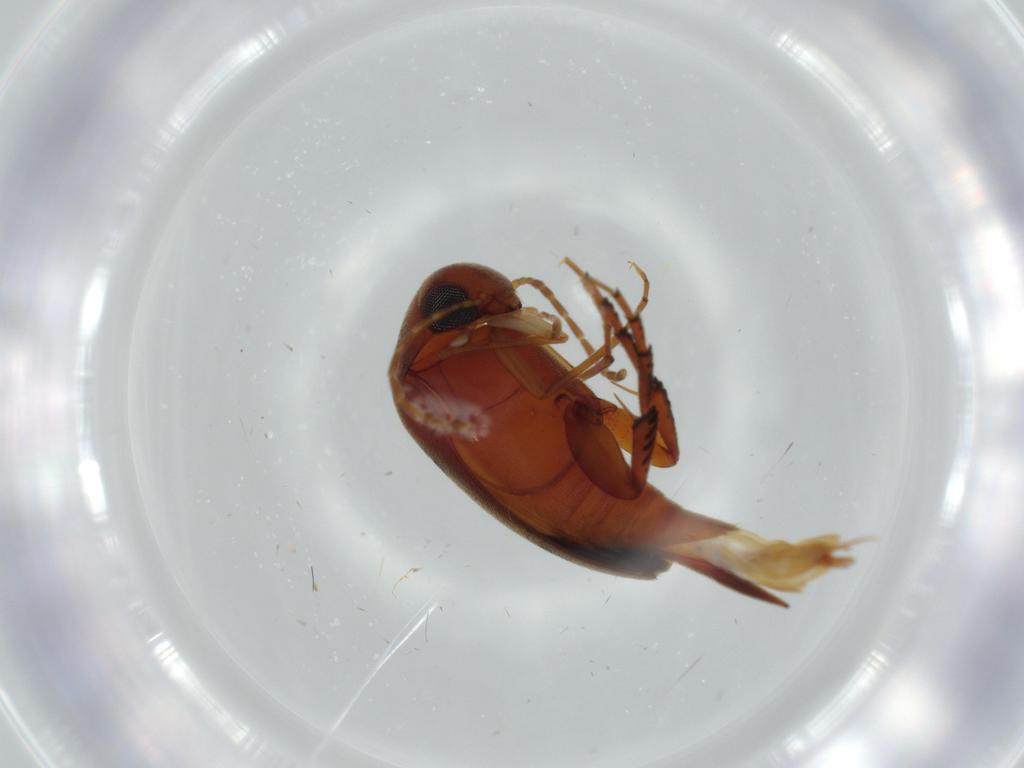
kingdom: Animalia
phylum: Arthropoda
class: Insecta
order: Coleoptera
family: Curculionidae
